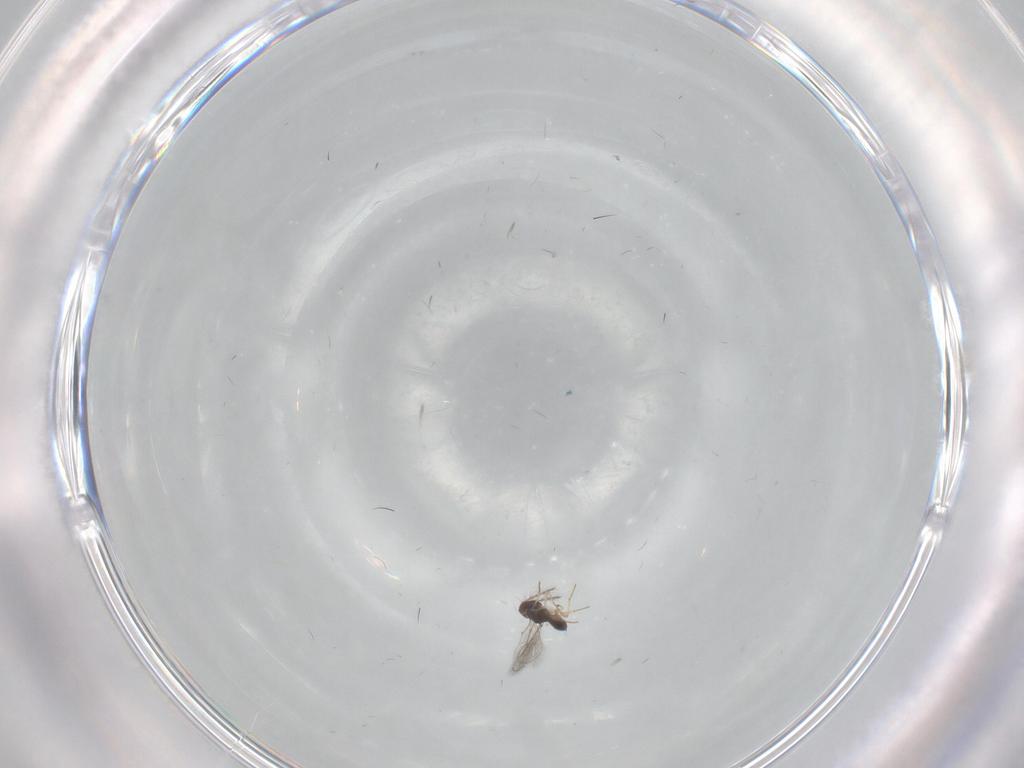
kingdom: Animalia
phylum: Arthropoda
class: Insecta
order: Hymenoptera
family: Eulophidae
